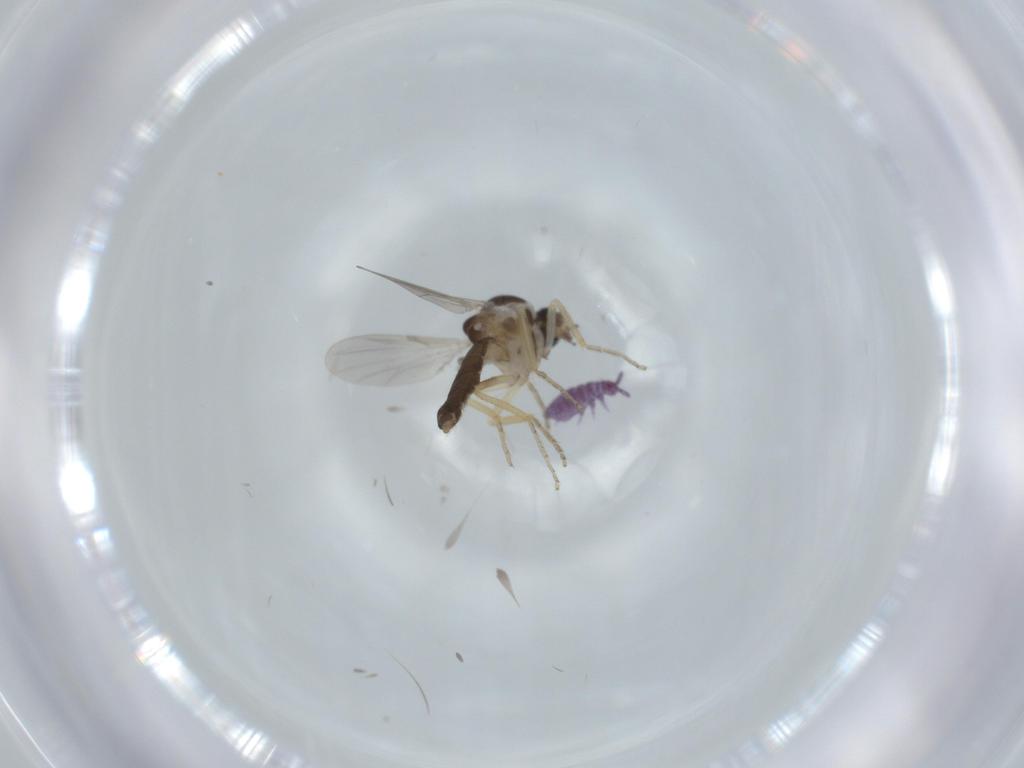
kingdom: Animalia
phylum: Arthropoda
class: Insecta
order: Diptera
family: Ceratopogonidae
